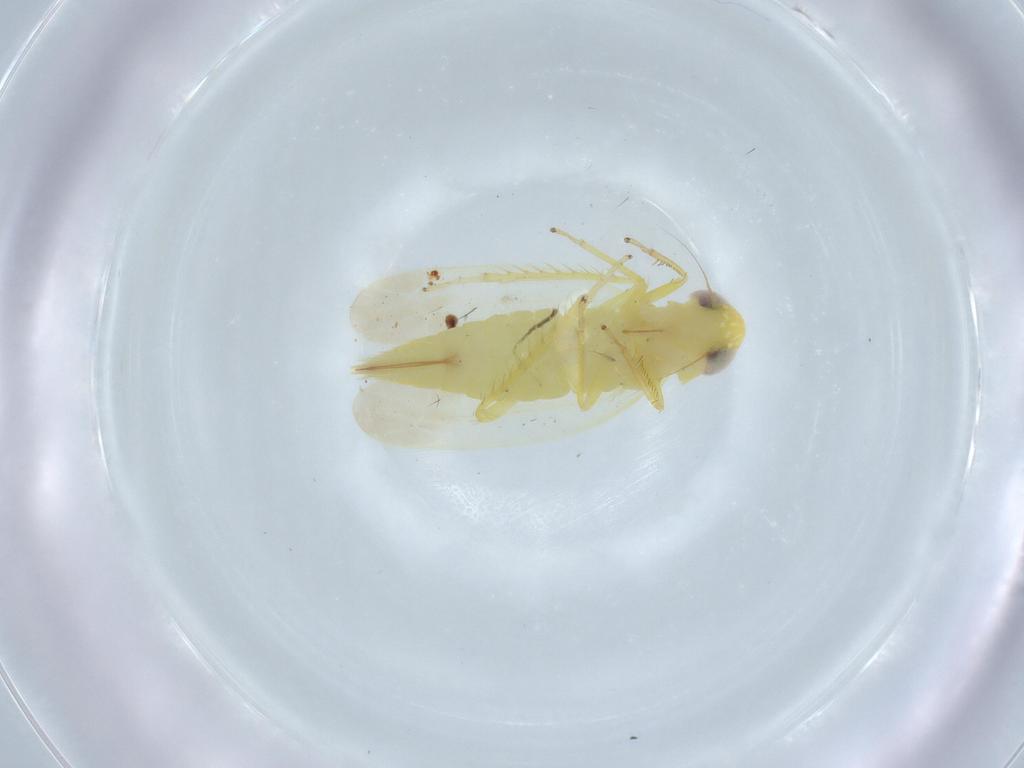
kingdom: Animalia
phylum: Arthropoda
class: Insecta
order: Hemiptera
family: Cicadellidae
